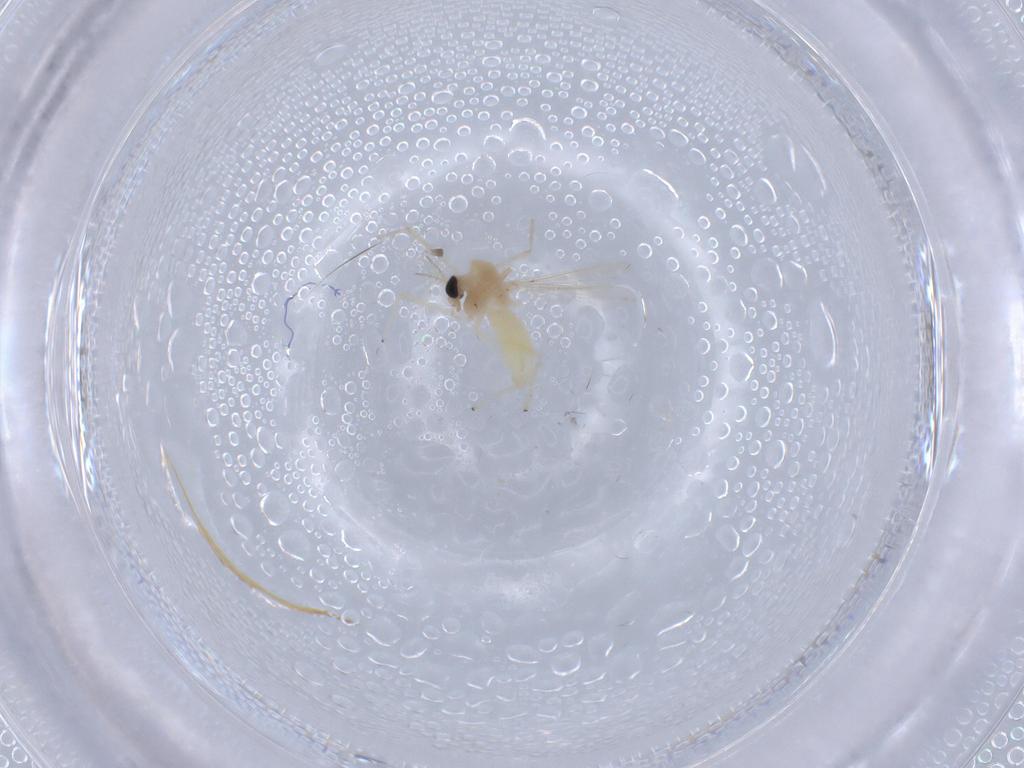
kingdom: Animalia
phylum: Arthropoda
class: Insecta
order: Diptera
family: Chironomidae
